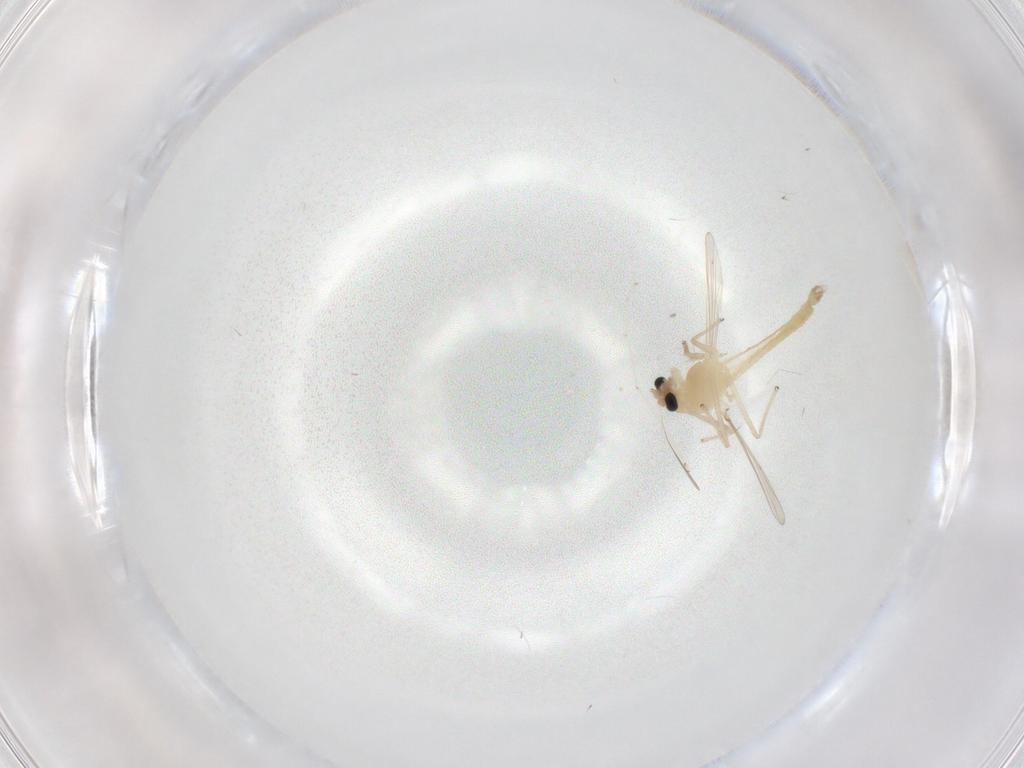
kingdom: Animalia
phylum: Arthropoda
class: Insecta
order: Diptera
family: Chironomidae
